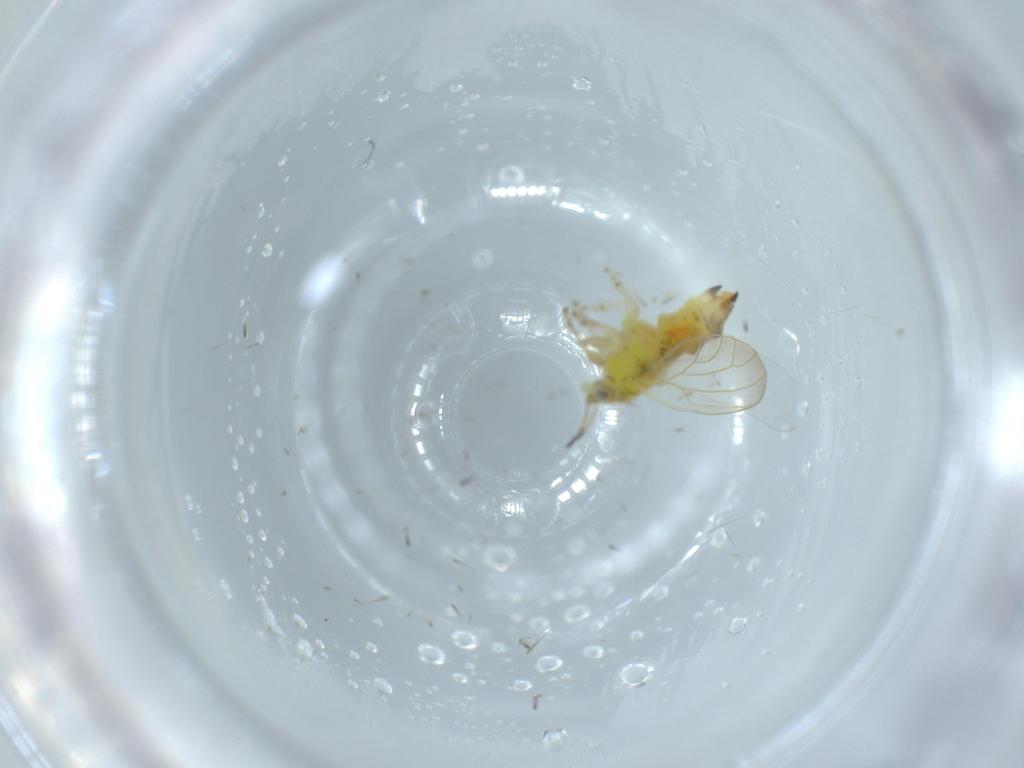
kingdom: Animalia
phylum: Arthropoda
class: Insecta
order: Hemiptera
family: Aphalaridae
